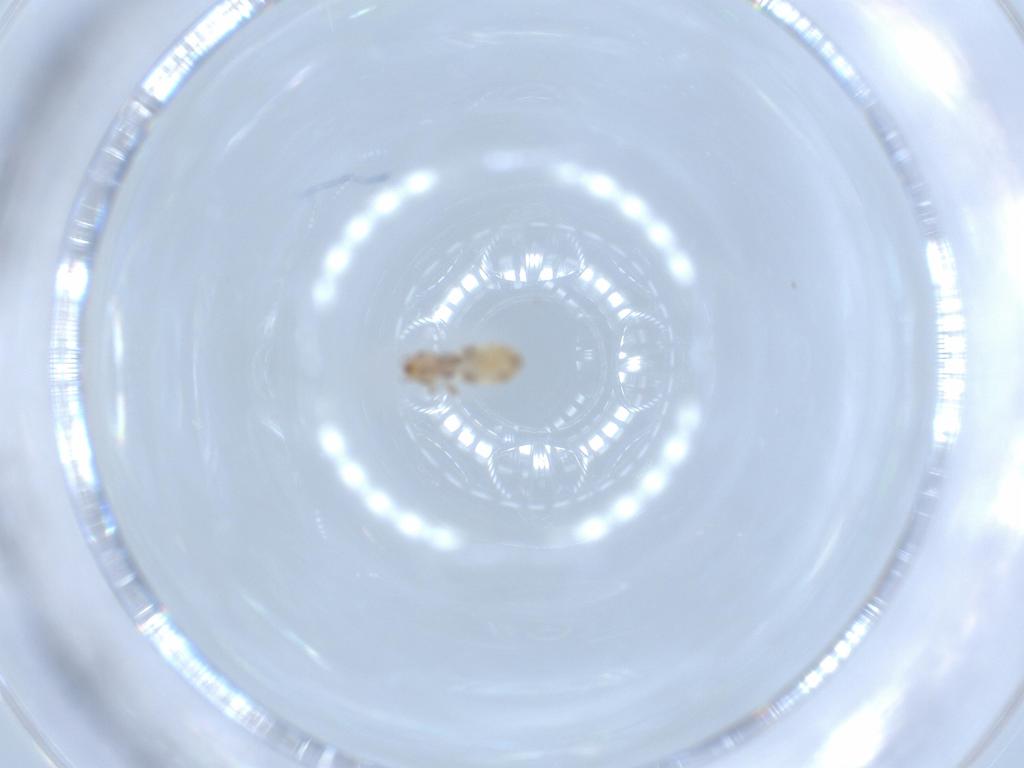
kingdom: Animalia
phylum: Arthropoda
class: Insecta
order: Psocodea
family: Liposcelididae
